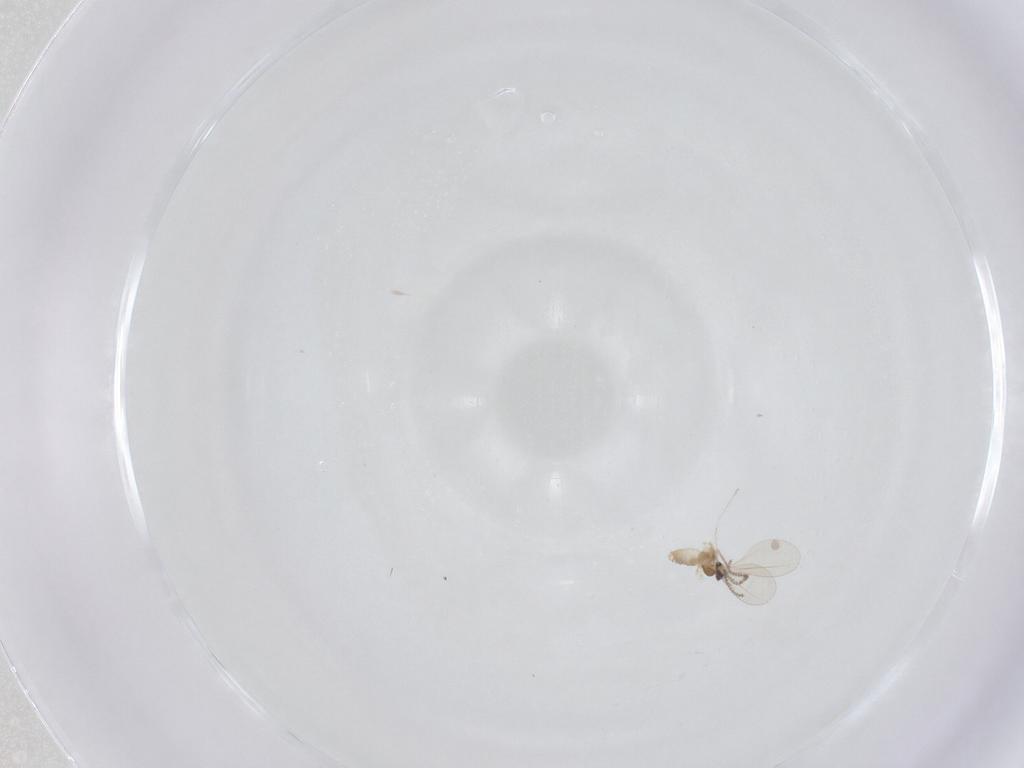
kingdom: Animalia
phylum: Arthropoda
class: Insecta
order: Diptera
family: Cecidomyiidae
